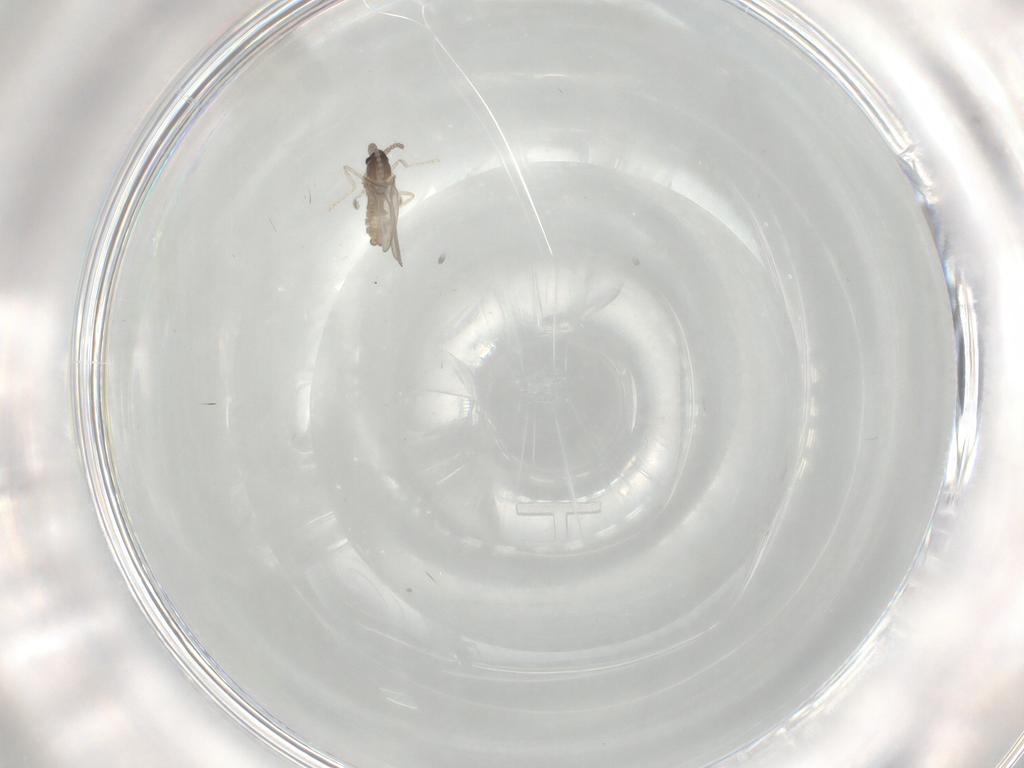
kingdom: Animalia
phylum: Arthropoda
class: Insecta
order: Diptera
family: Cecidomyiidae
